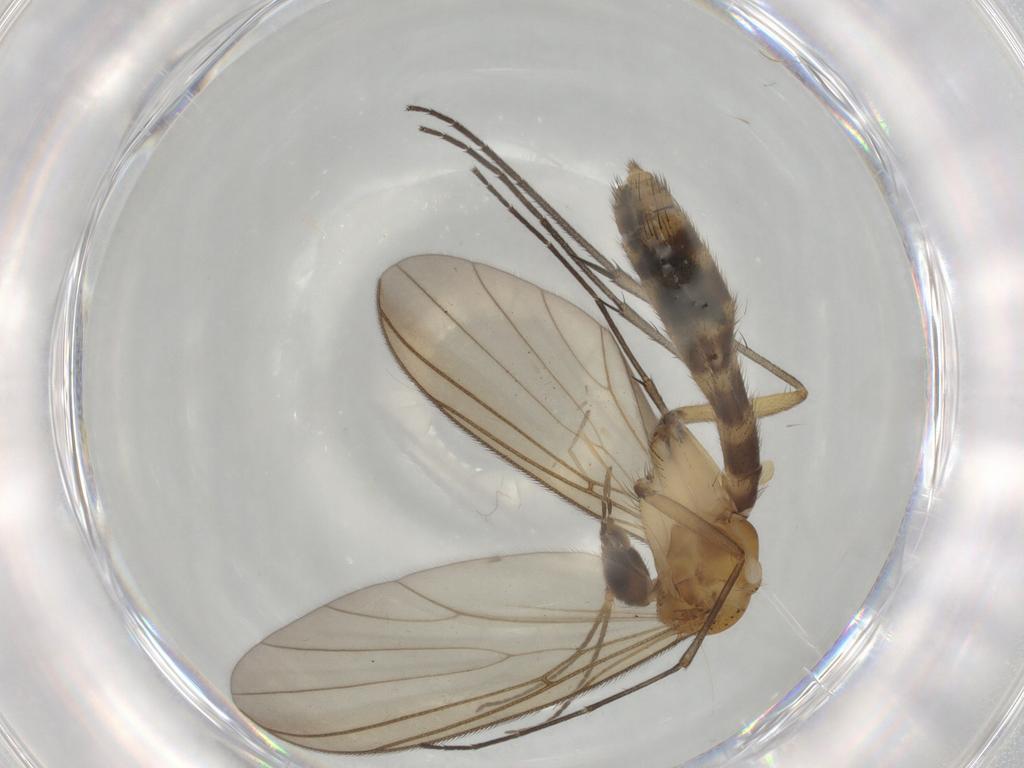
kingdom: Animalia
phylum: Arthropoda
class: Insecta
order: Diptera
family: Mycetophilidae
